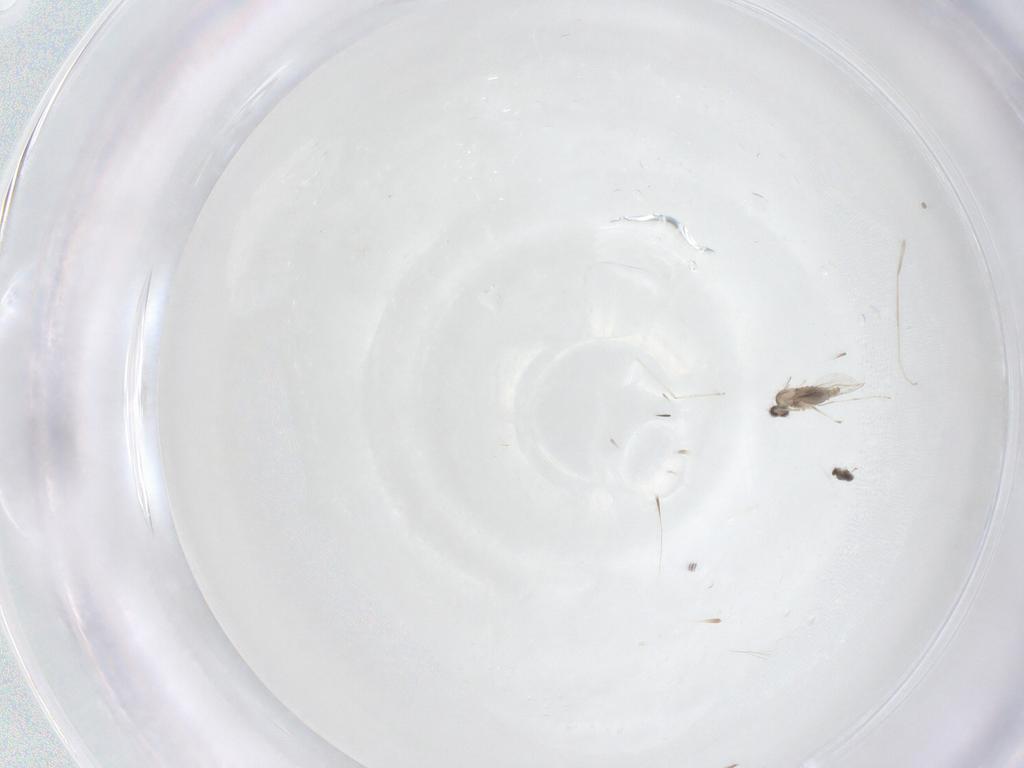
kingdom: Animalia
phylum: Arthropoda
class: Insecta
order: Diptera
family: Cecidomyiidae
